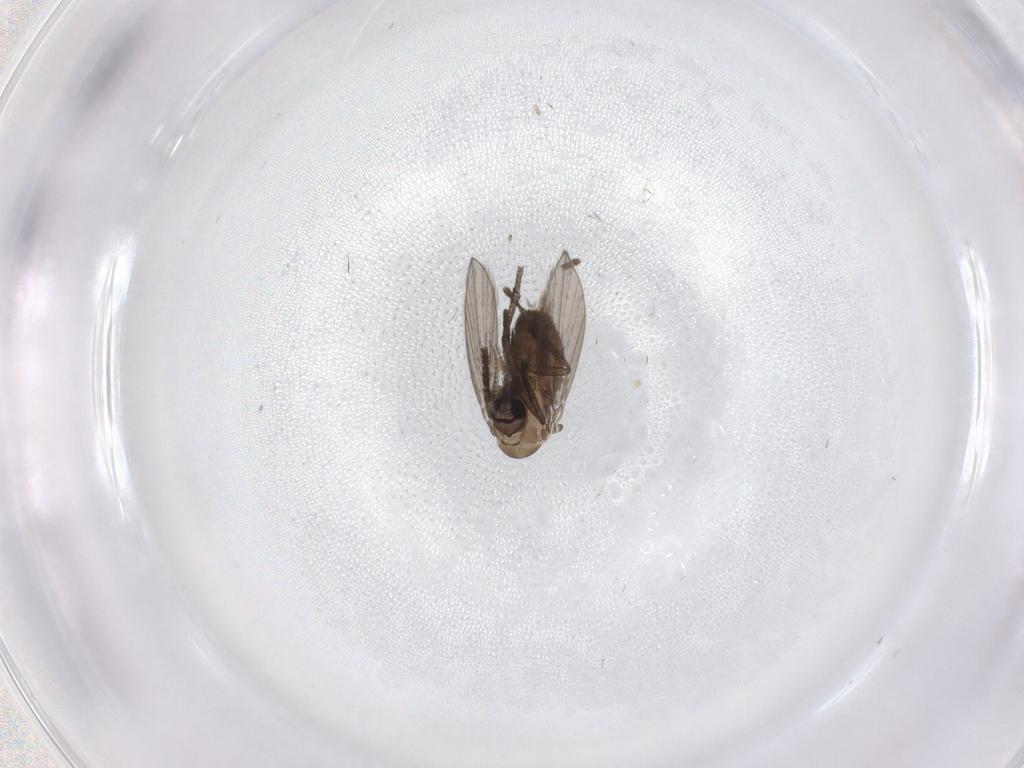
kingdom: Animalia
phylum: Arthropoda
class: Insecta
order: Diptera
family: Psychodidae
